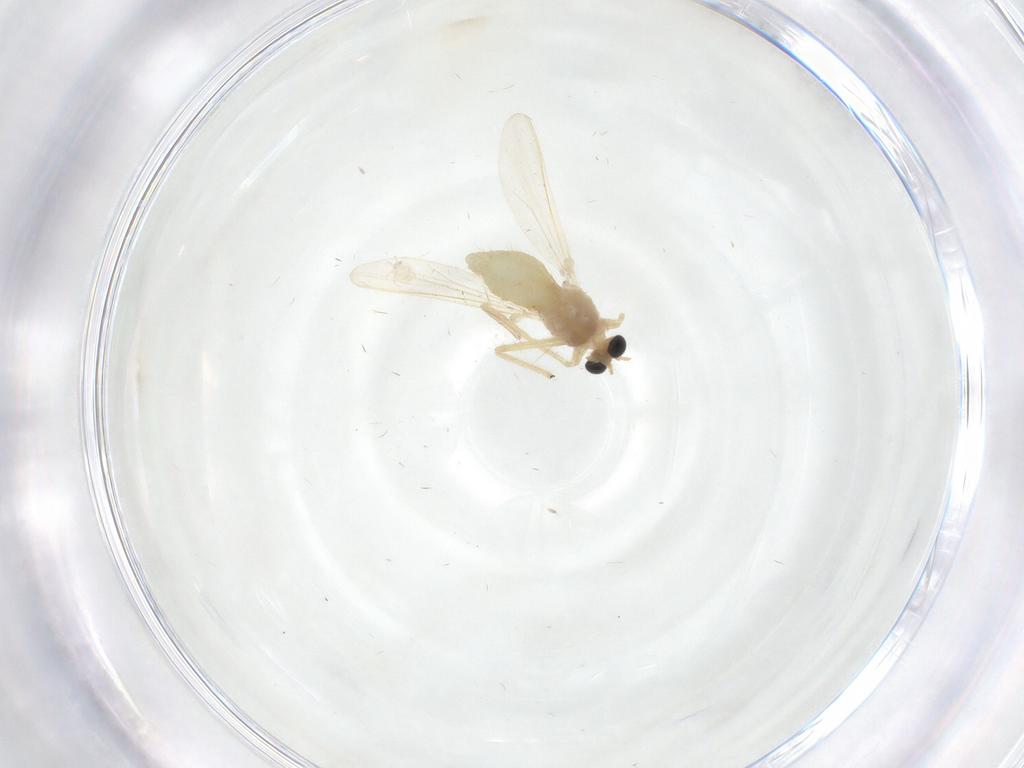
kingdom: Animalia
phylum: Arthropoda
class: Insecta
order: Diptera
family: Chironomidae
